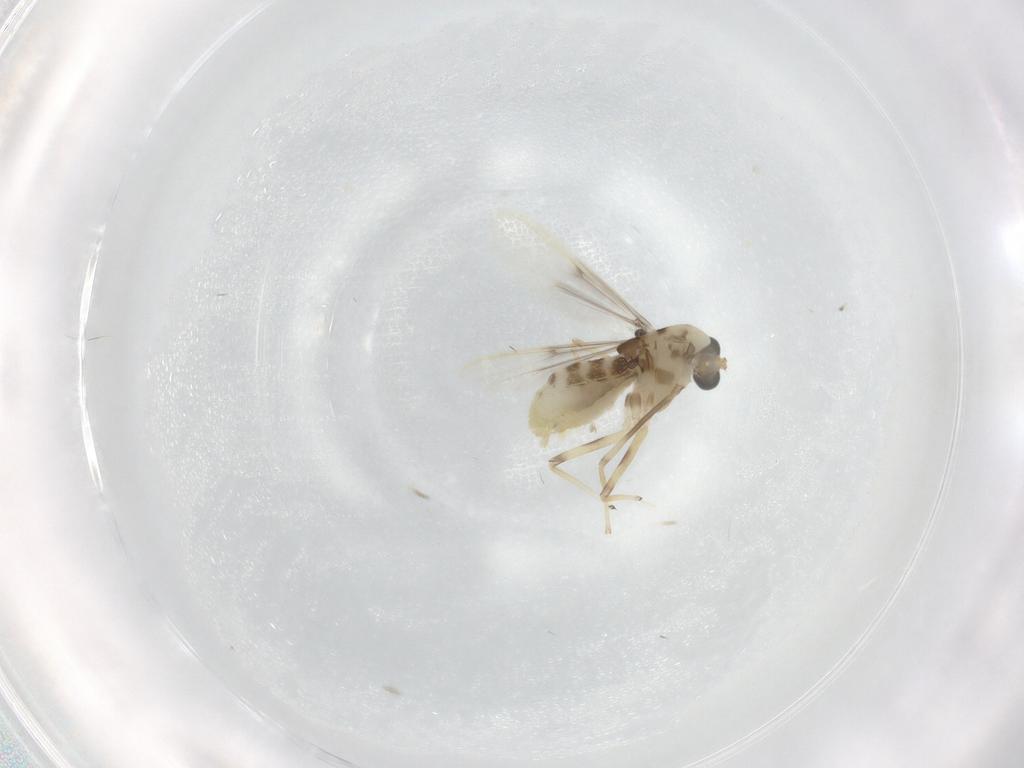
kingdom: Animalia
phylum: Arthropoda
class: Insecta
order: Diptera
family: Chironomidae
